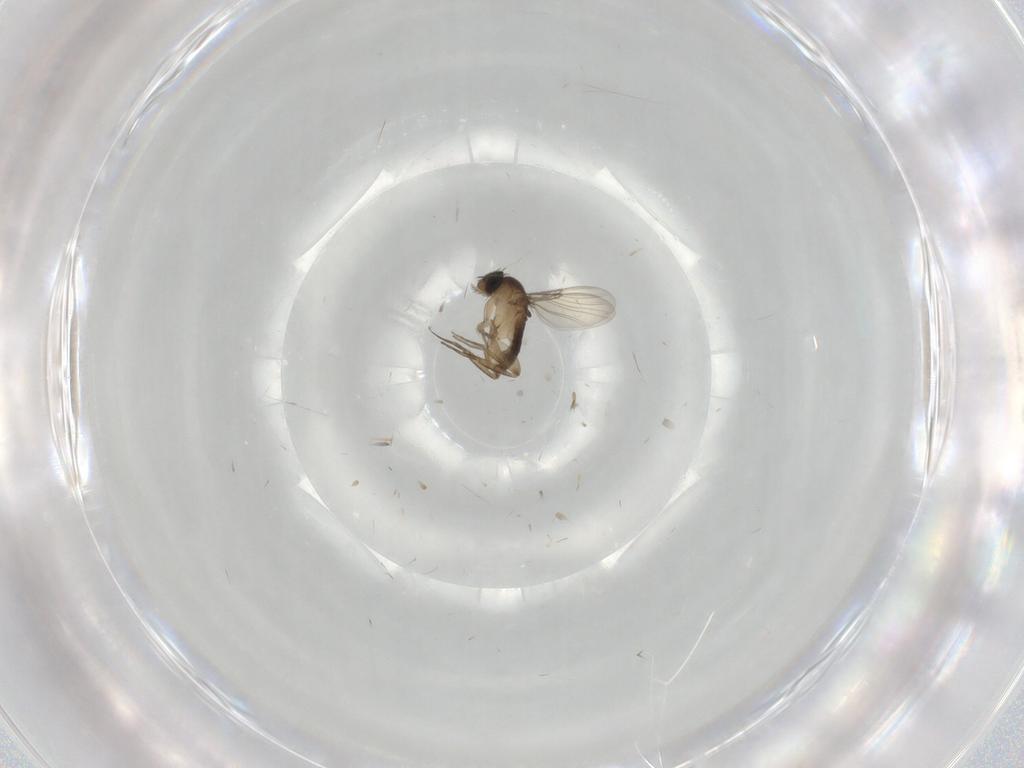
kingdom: Animalia
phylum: Arthropoda
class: Insecta
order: Diptera
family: Phoridae
